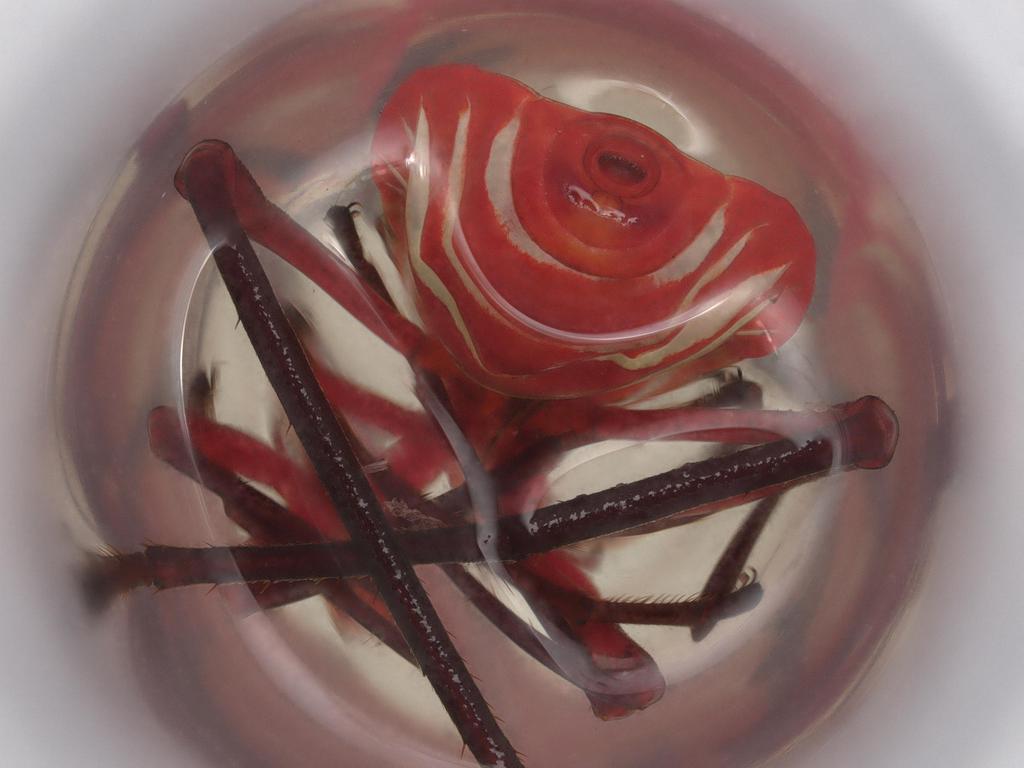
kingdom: Animalia
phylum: Arthropoda
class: Insecta
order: Hemiptera
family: Pyrrhocoridae
